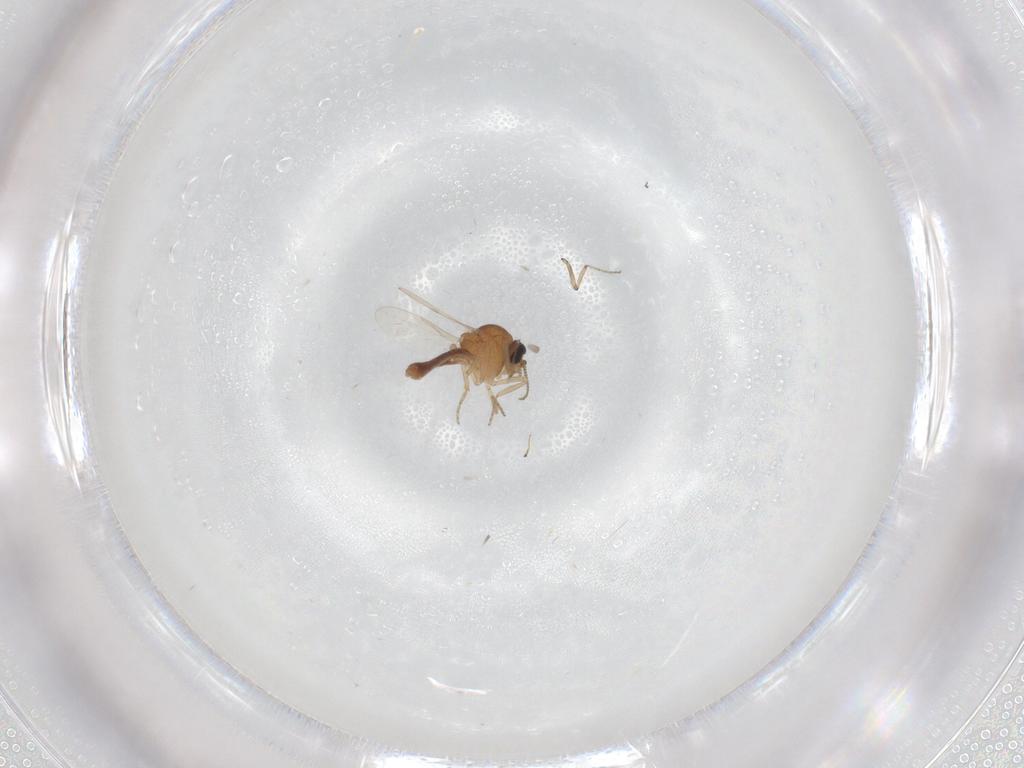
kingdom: Animalia
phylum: Arthropoda
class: Insecta
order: Diptera
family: Ceratopogonidae
